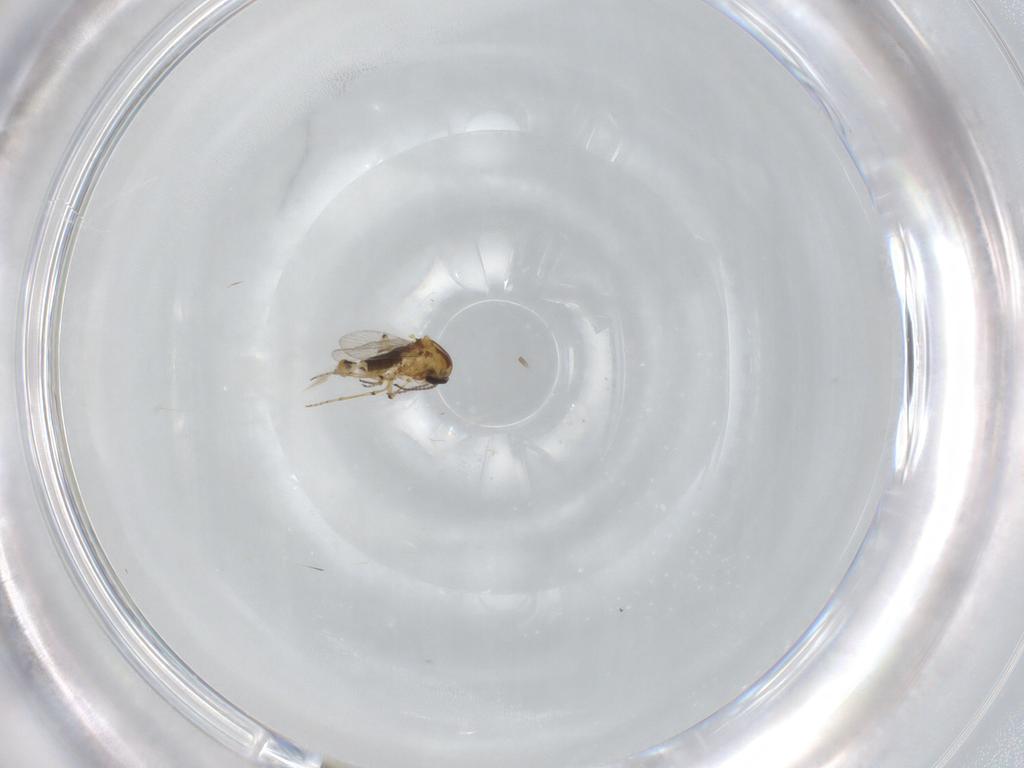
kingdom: Animalia
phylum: Arthropoda
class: Insecta
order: Diptera
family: Ceratopogonidae
